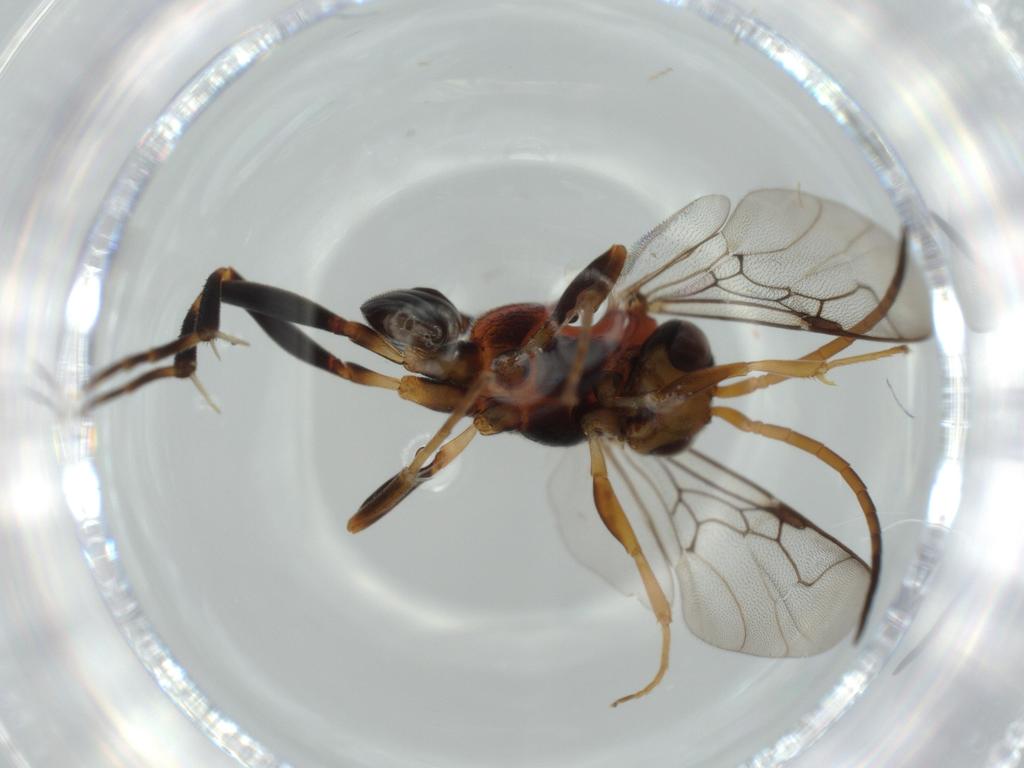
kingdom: Animalia
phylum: Arthropoda
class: Insecta
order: Hymenoptera
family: Scelionidae
